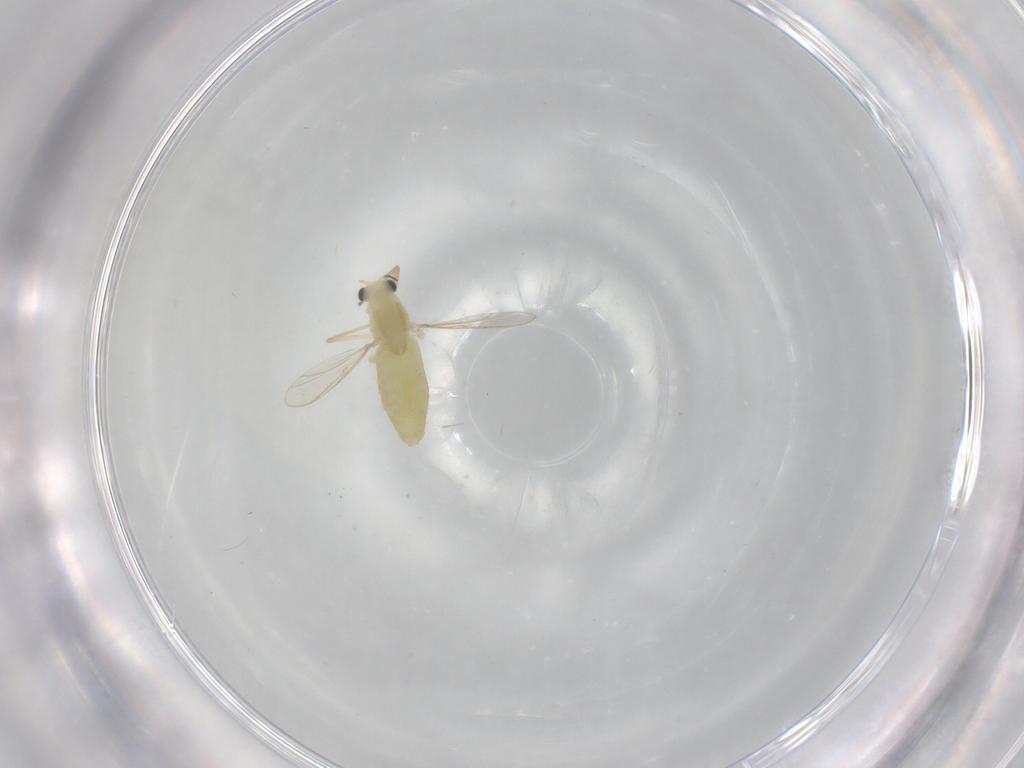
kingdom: Animalia
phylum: Arthropoda
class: Insecta
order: Diptera
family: Chironomidae
